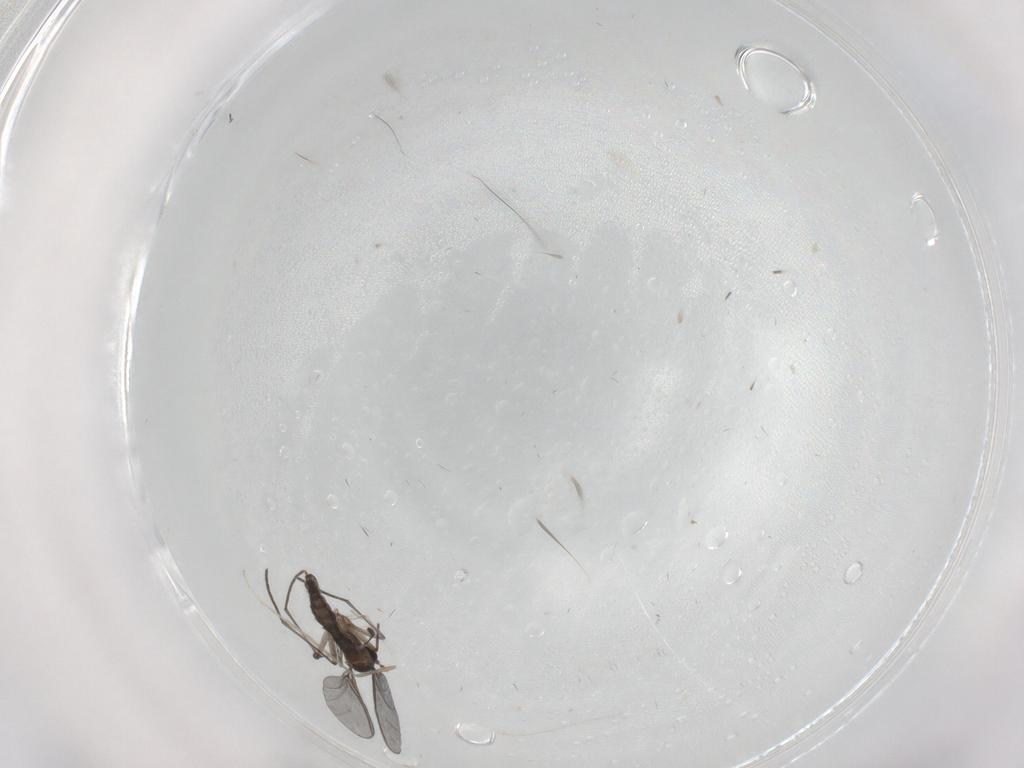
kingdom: Animalia
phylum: Arthropoda
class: Insecta
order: Diptera
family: Cecidomyiidae
